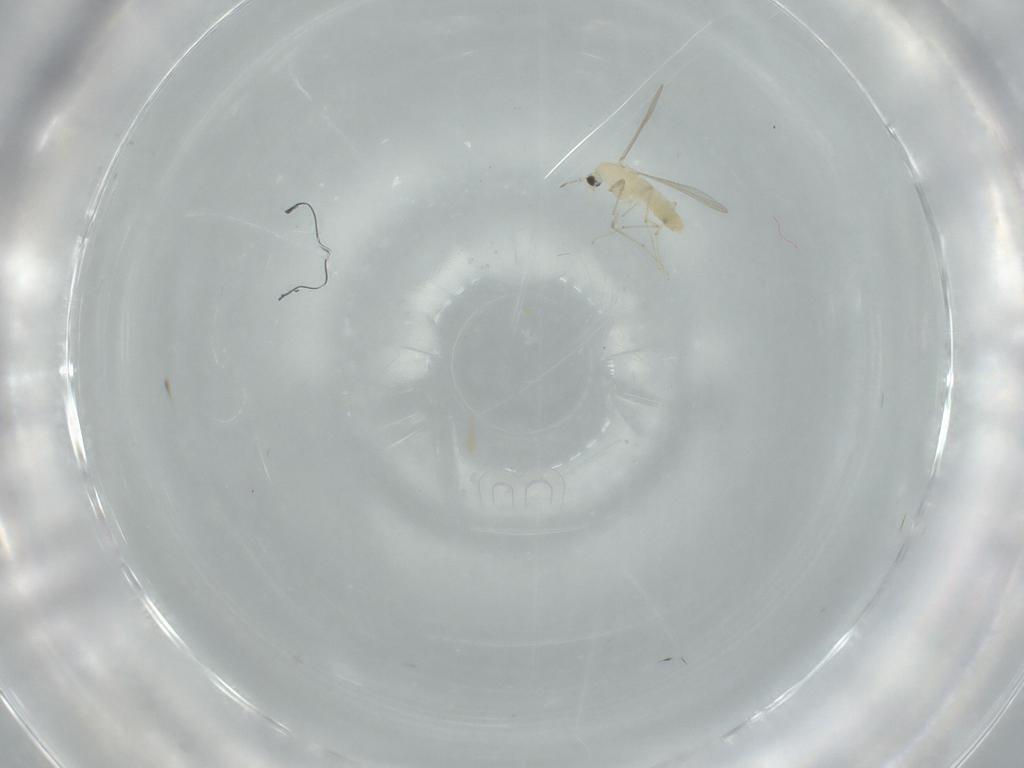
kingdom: Animalia
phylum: Arthropoda
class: Insecta
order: Diptera
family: Chironomidae
